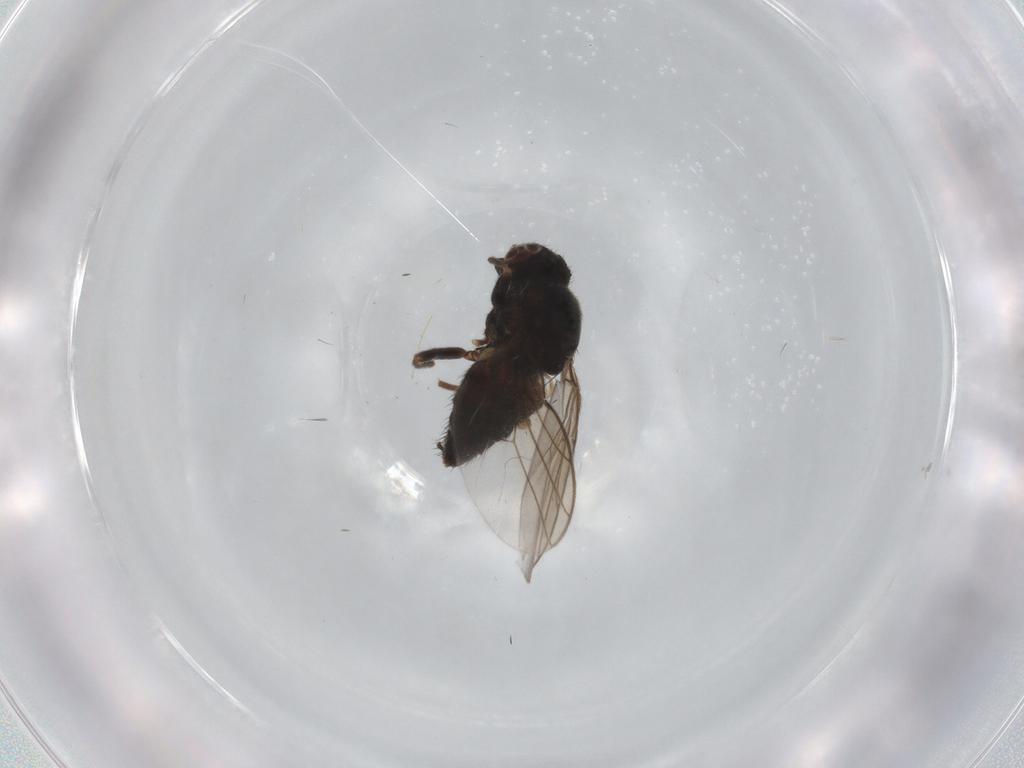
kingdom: Animalia
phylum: Arthropoda
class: Insecta
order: Diptera
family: Chloropidae
